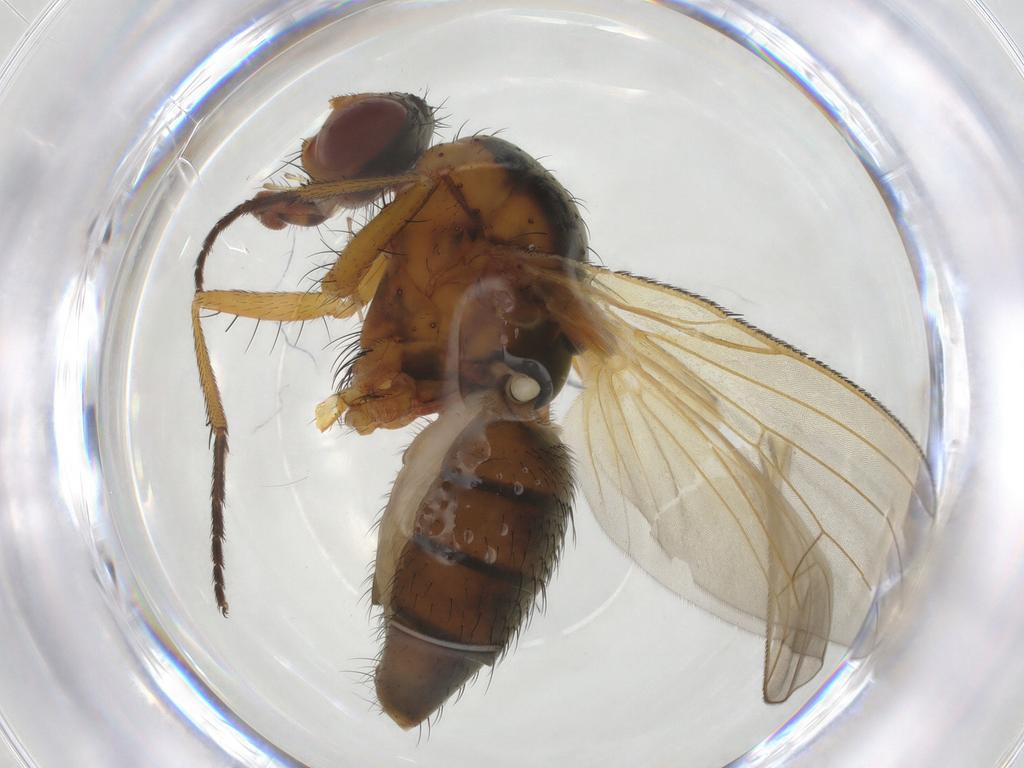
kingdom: Animalia
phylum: Arthropoda
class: Insecta
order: Diptera
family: Anthomyiidae
